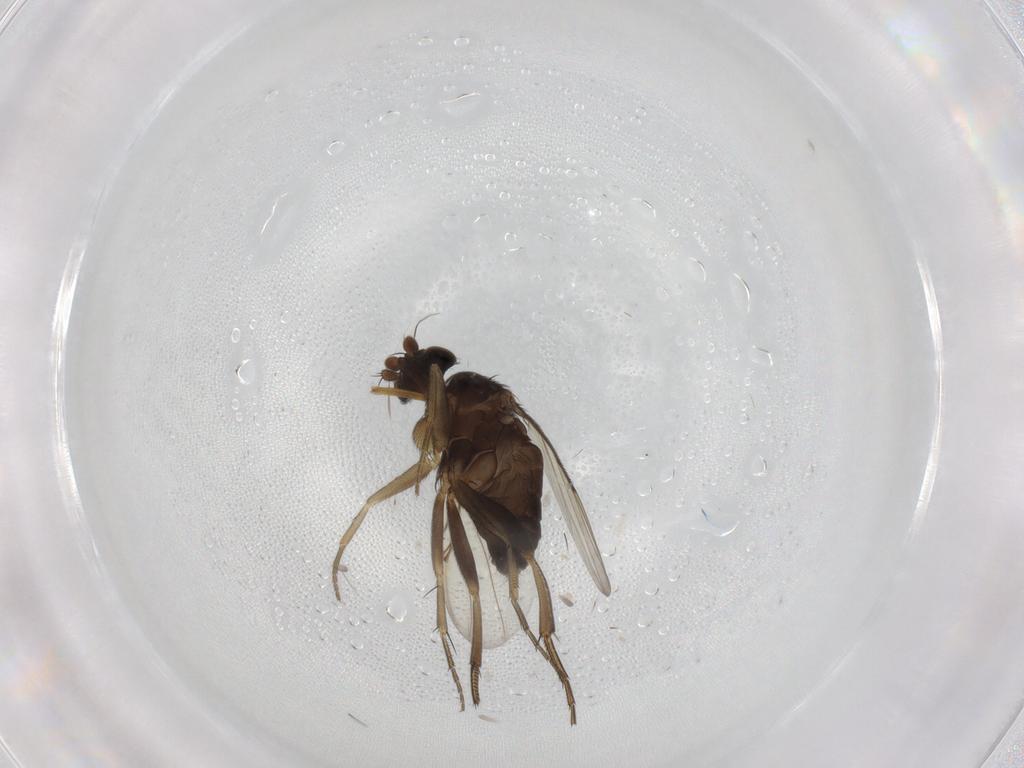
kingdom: Animalia
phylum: Arthropoda
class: Insecta
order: Diptera
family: Phoridae
